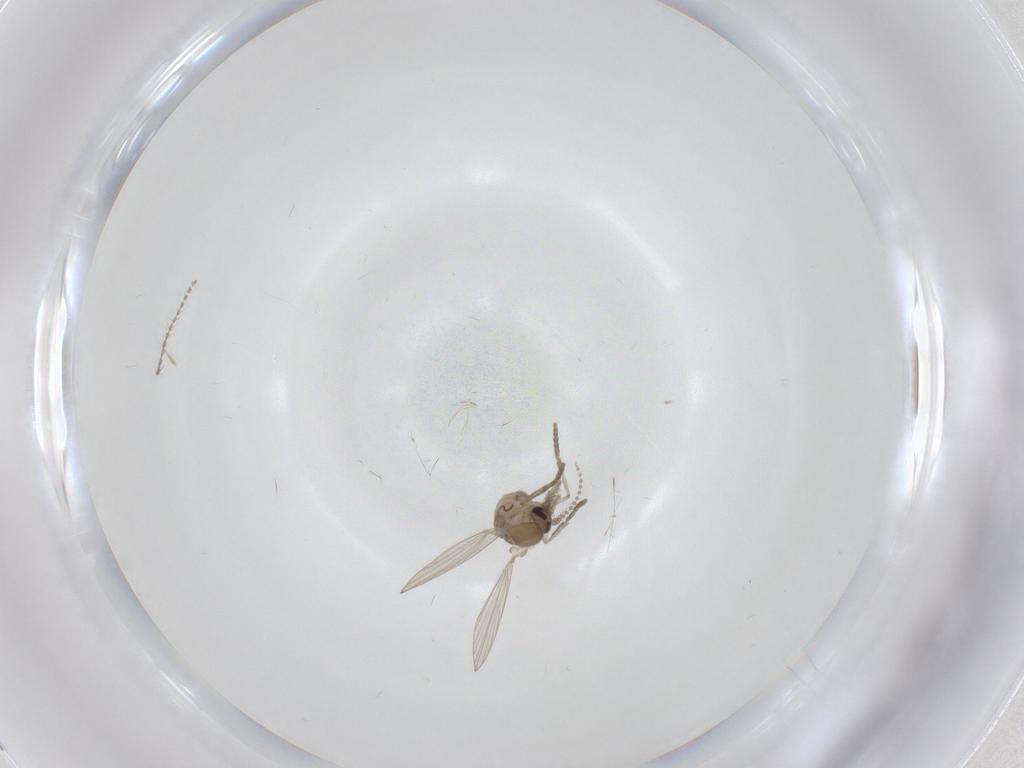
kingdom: Animalia
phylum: Arthropoda
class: Insecta
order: Diptera
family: Psychodidae
